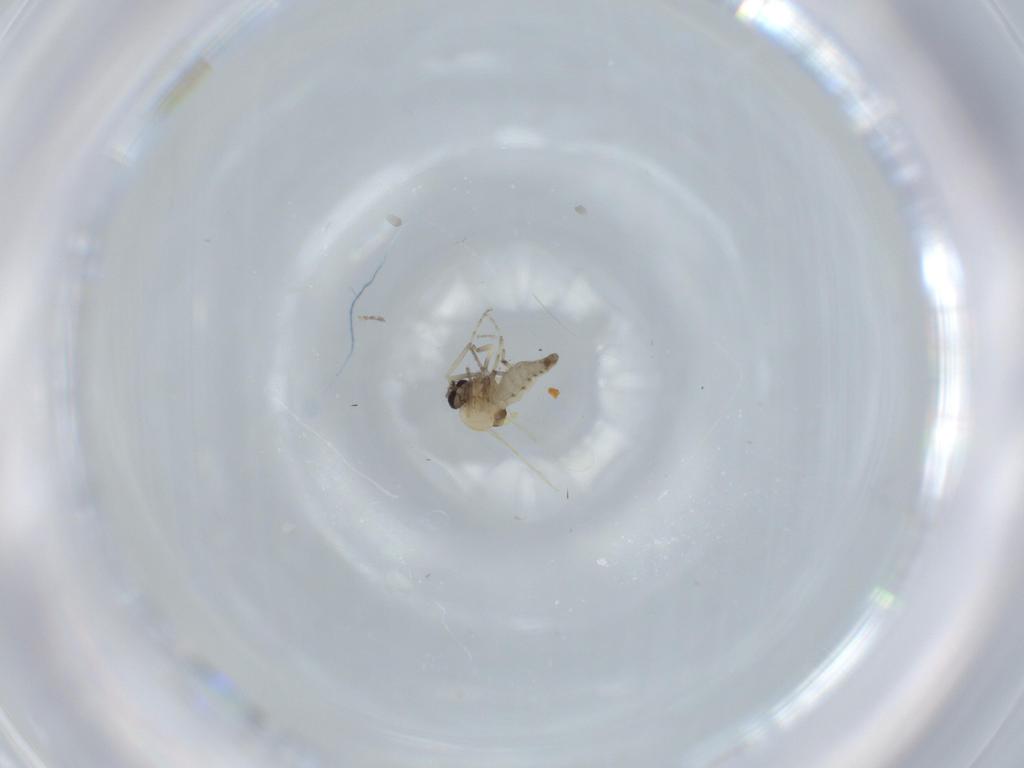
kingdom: Animalia
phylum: Arthropoda
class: Insecta
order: Diptera
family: Ceratopogonidae
